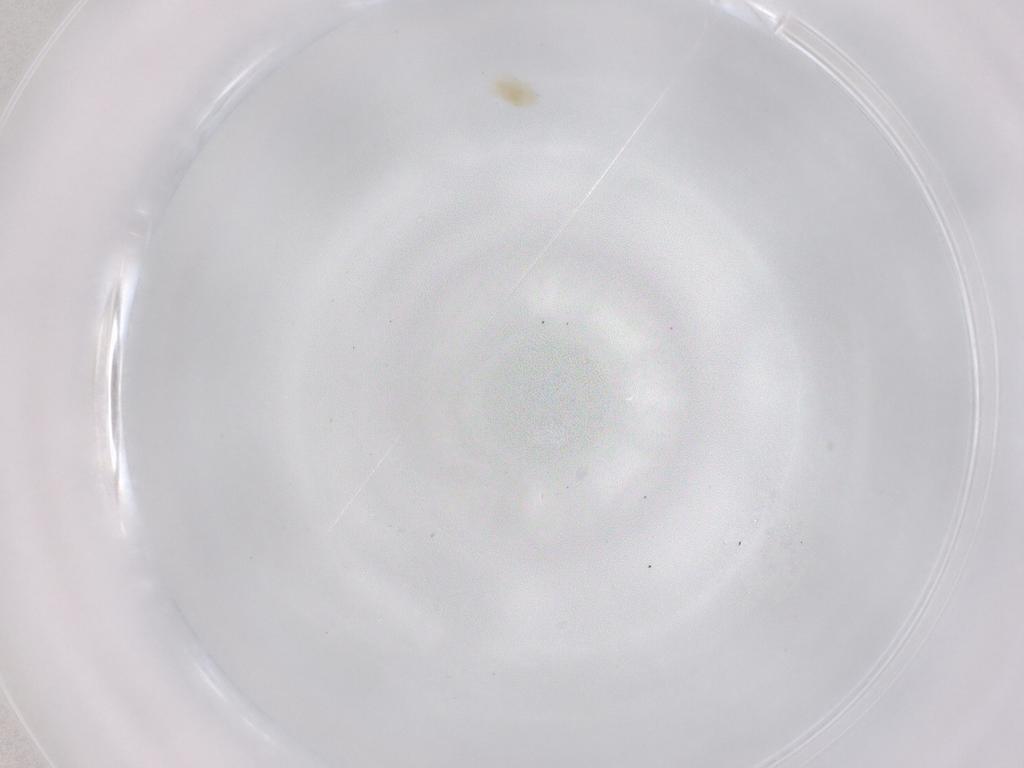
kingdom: Animalia
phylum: Arthropoda
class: Arachnida
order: Trombidiformes
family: Eupodidae
